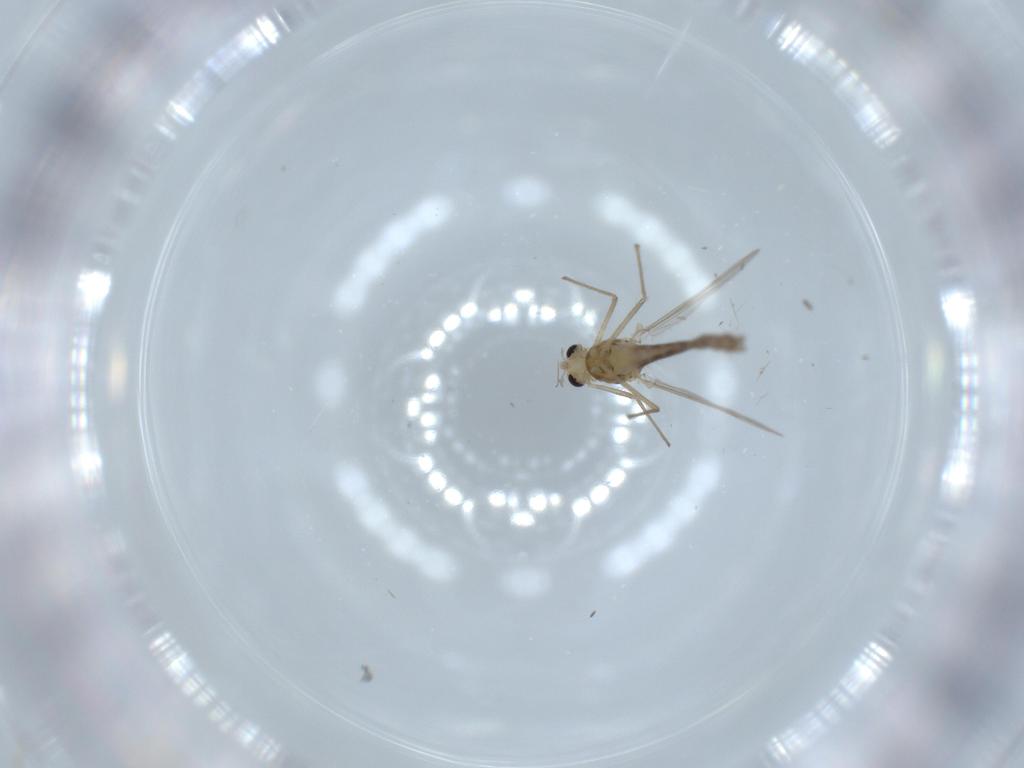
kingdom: Animalia
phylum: Arthropoda
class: Insecta
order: Diptera
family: Chironomidae
